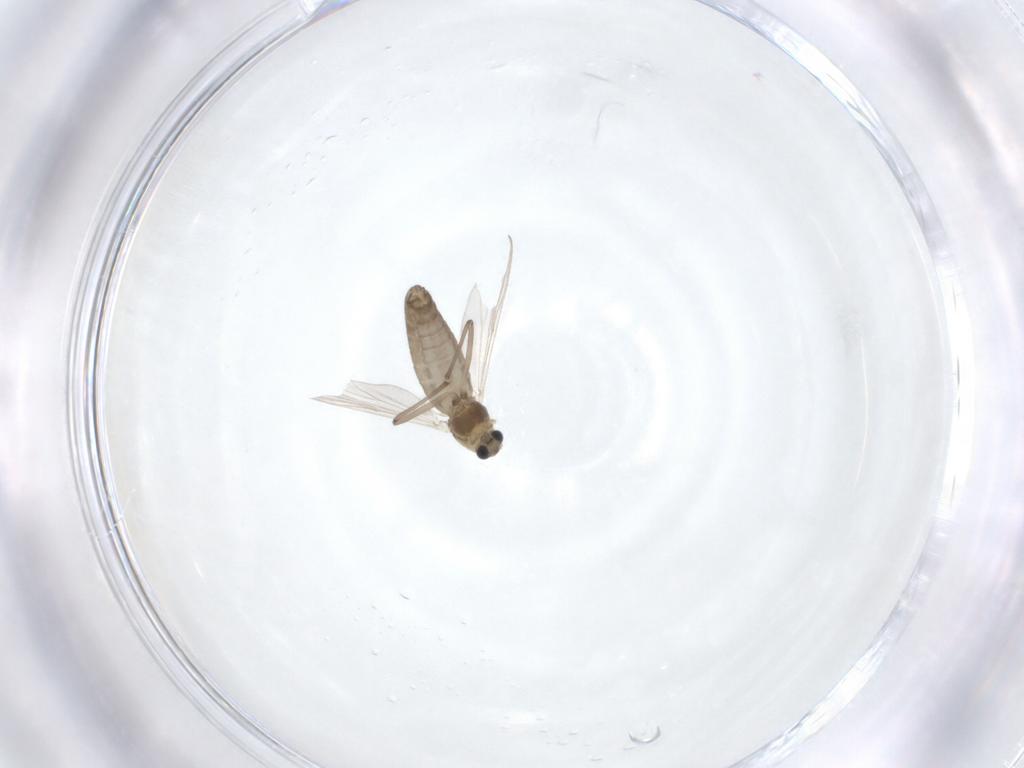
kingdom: Animalia
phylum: Arthropoda
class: Insecta
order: Diptera
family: Chironomidae
